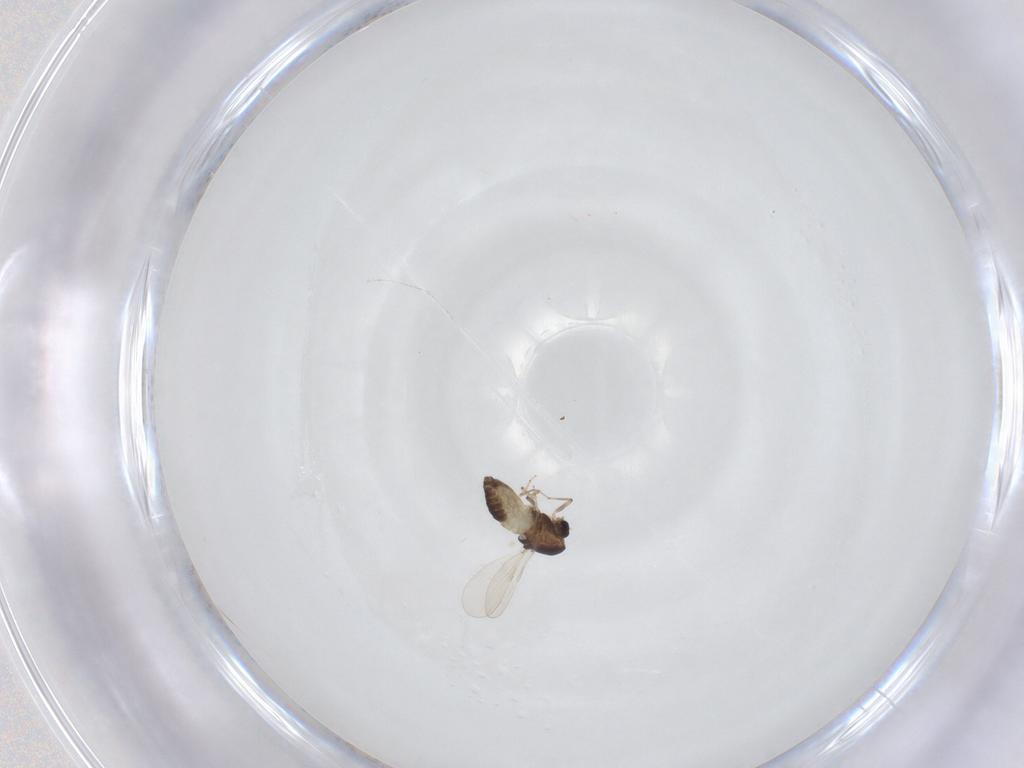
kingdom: Animalia
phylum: Arthropoda
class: Insecta
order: Diptera
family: Chironomidae
